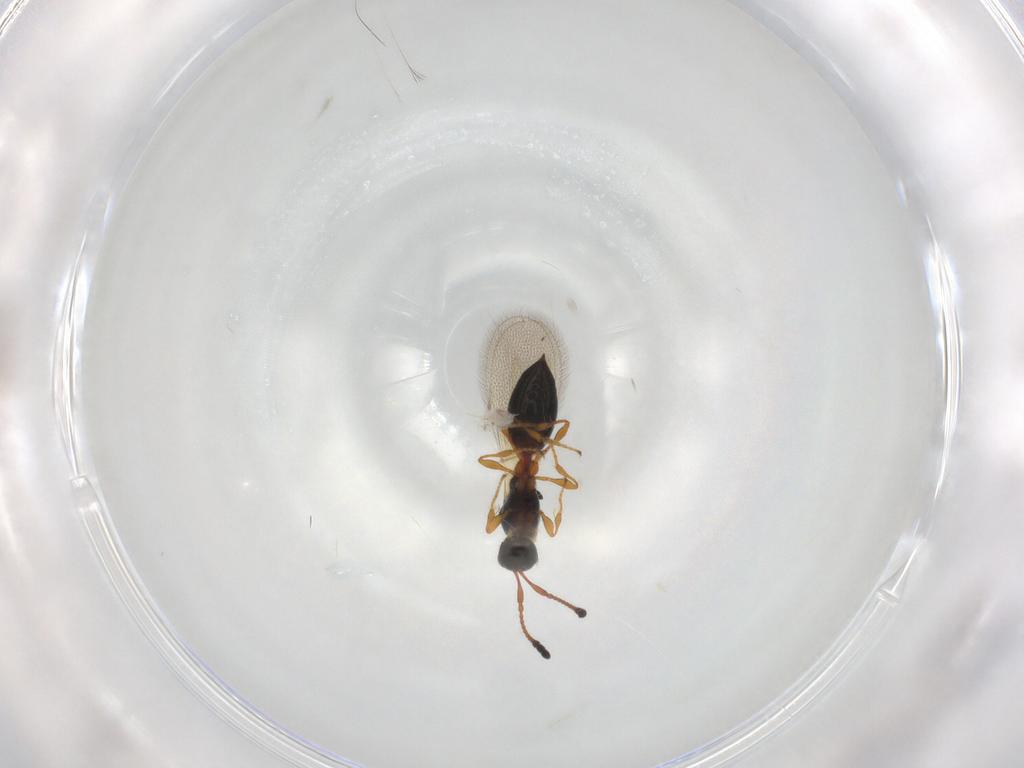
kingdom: Animalia
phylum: Arthropoda
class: Insecta
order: Hymenoptera
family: Diapriidae
